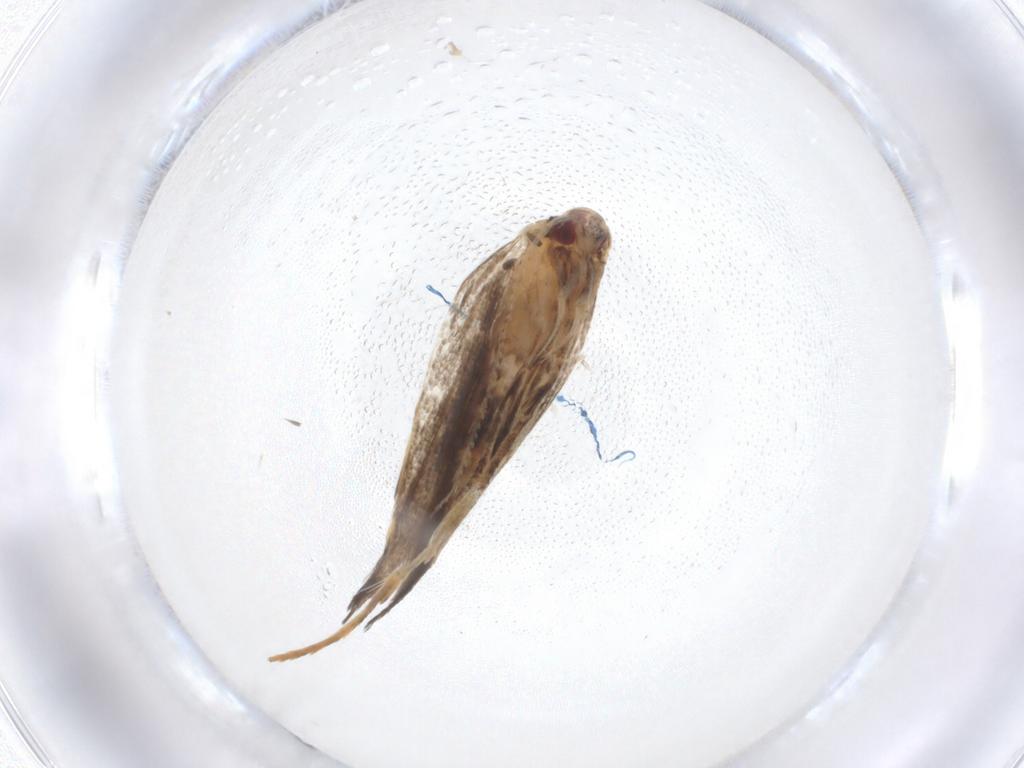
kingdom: Animalia
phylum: Arthropoda
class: Insecta
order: Lepidoptera
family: Cosmopterigidae
